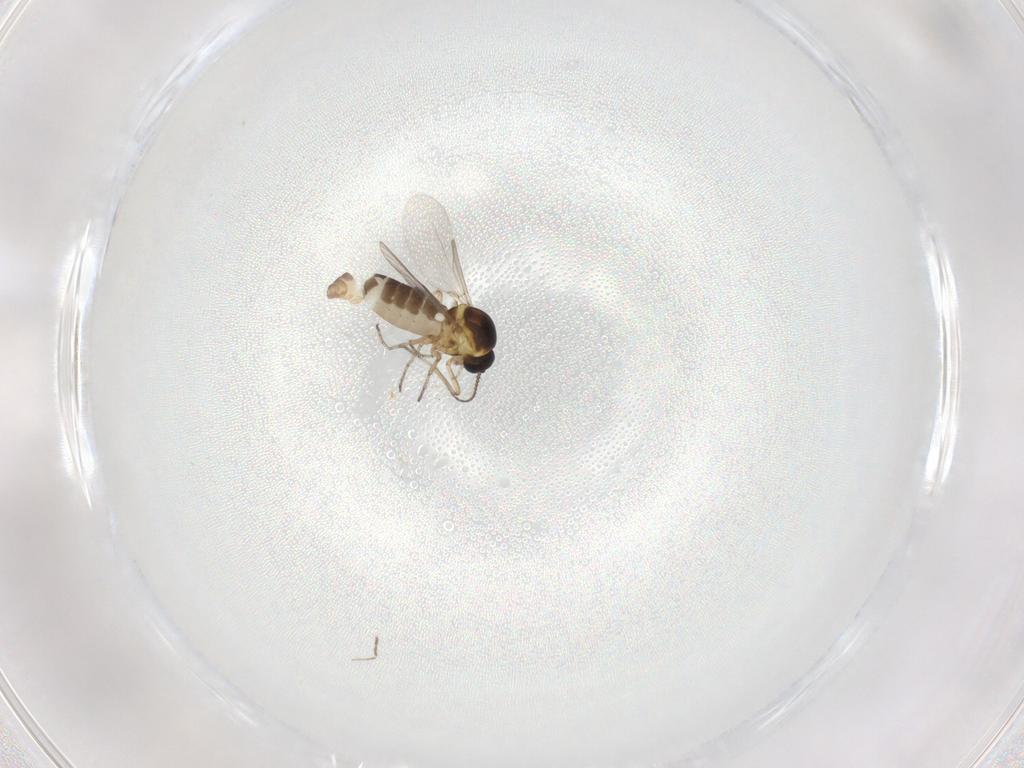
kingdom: Animalia
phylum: Arthropoda
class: Insecta
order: Diptera
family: Ceratopogonidae
